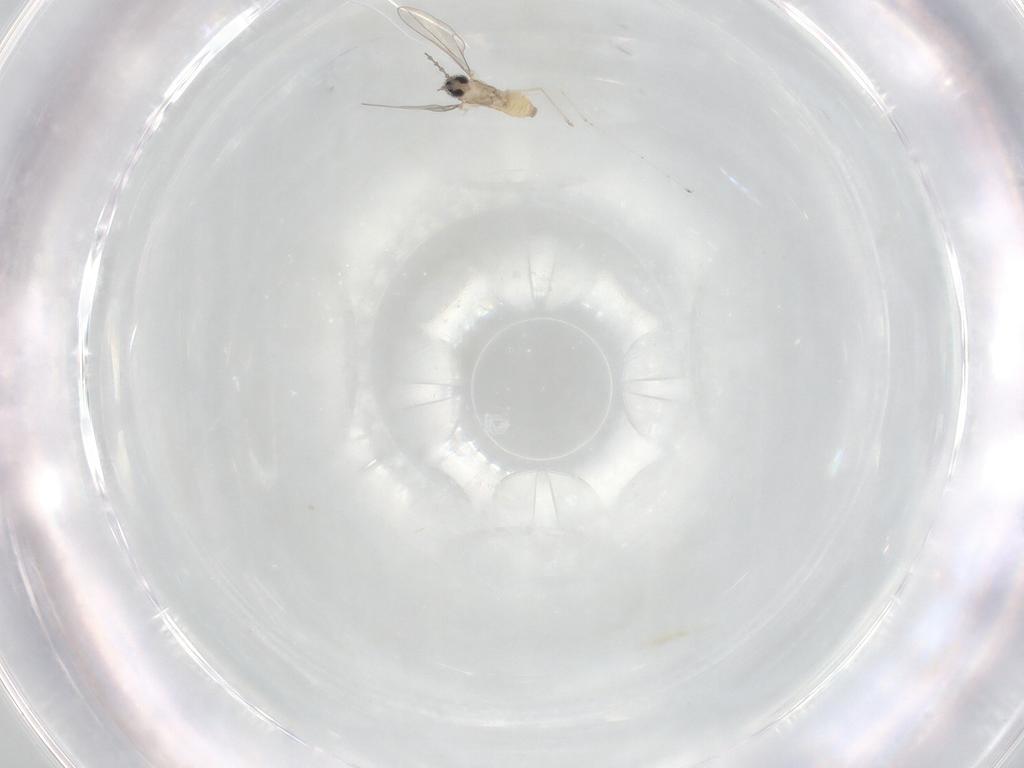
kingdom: Animalia
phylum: Arthropoda
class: Insecta
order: Diptera
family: Cecidomyiidae
